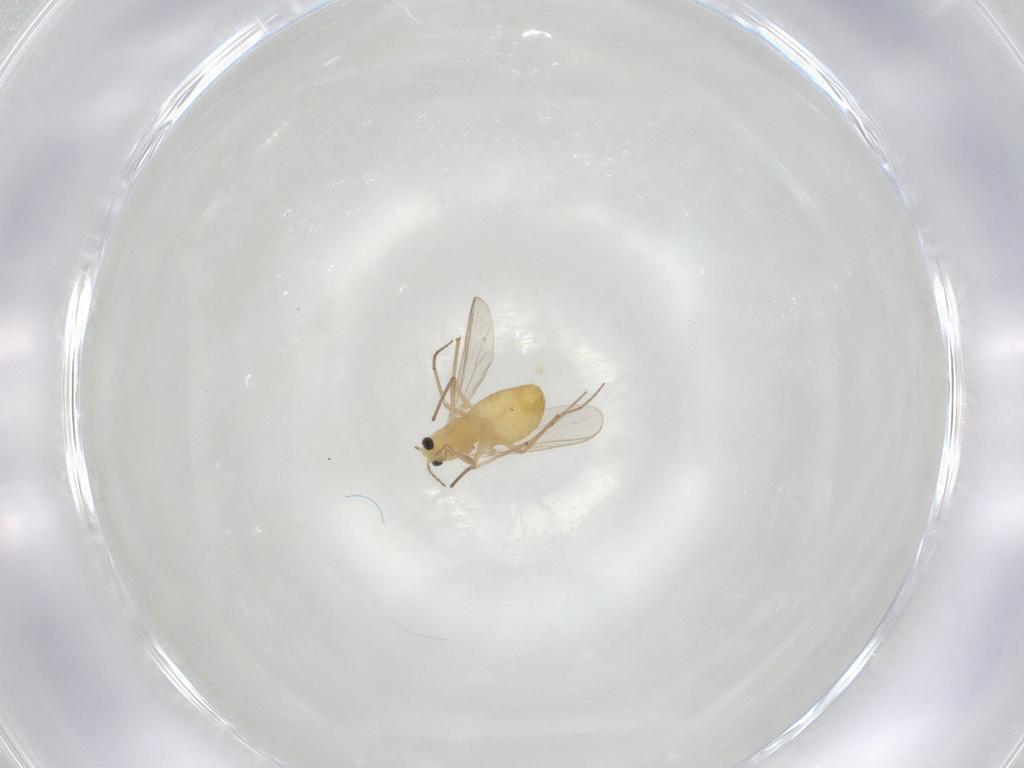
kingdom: Animalia
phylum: Arthropoda
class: Insecta
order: Diptera
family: Chironomidae
